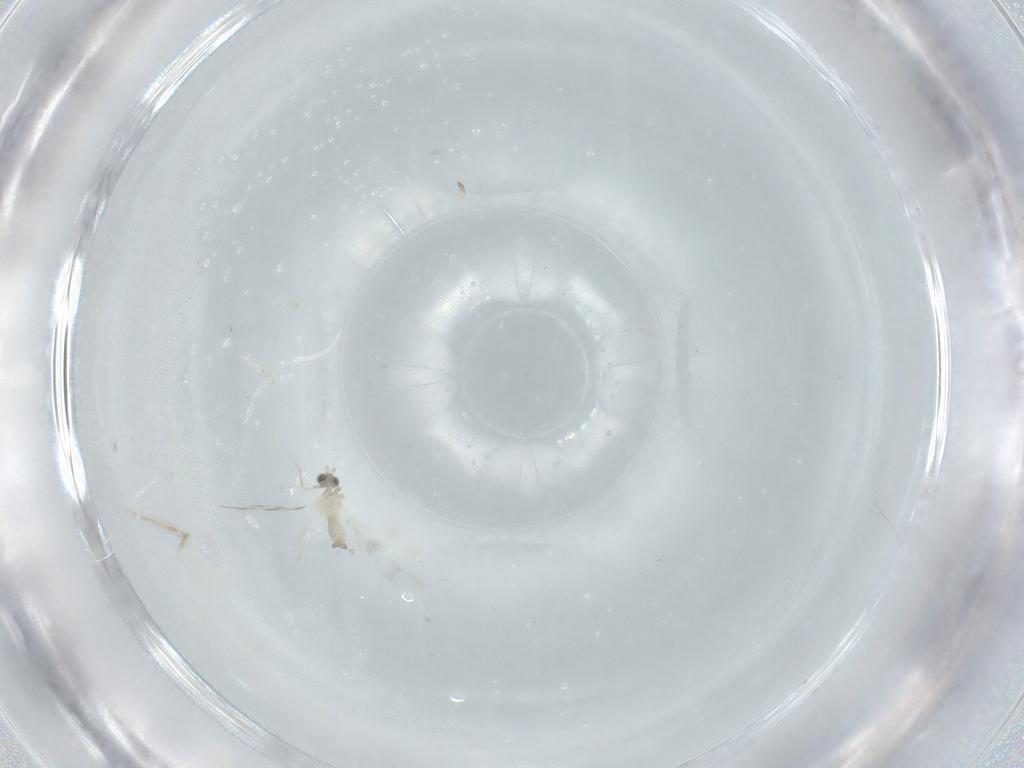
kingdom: Animalia
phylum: Arthropoda
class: Insecta
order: Diptera
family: Cecidomyiidae
